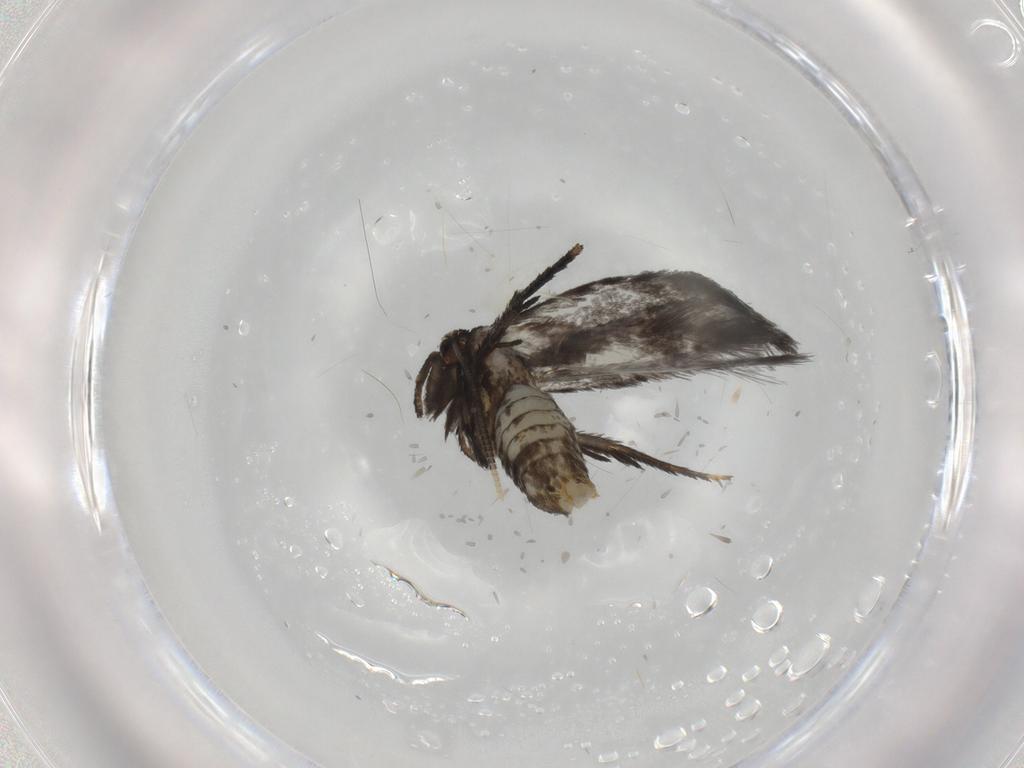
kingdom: Animalia
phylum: Arthropoda
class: Insecta
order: Lepidoptera
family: Nepticulidae
